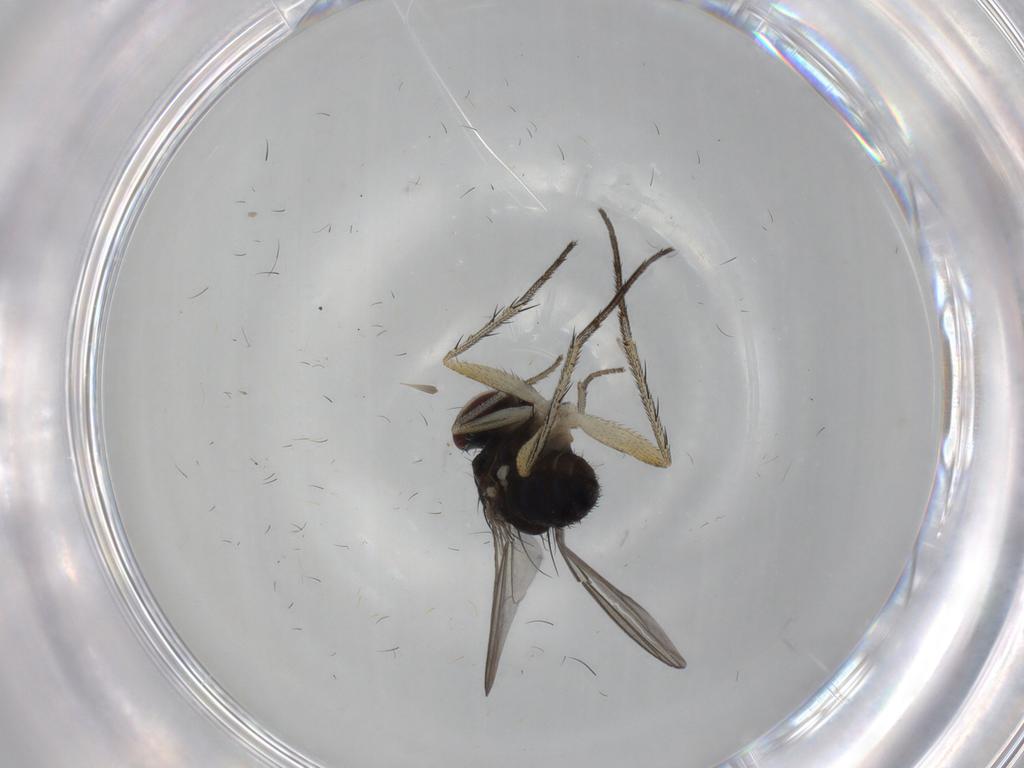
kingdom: Animalia
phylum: Arthropoda
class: Insecta
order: Diptera
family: Dolichopodidae
